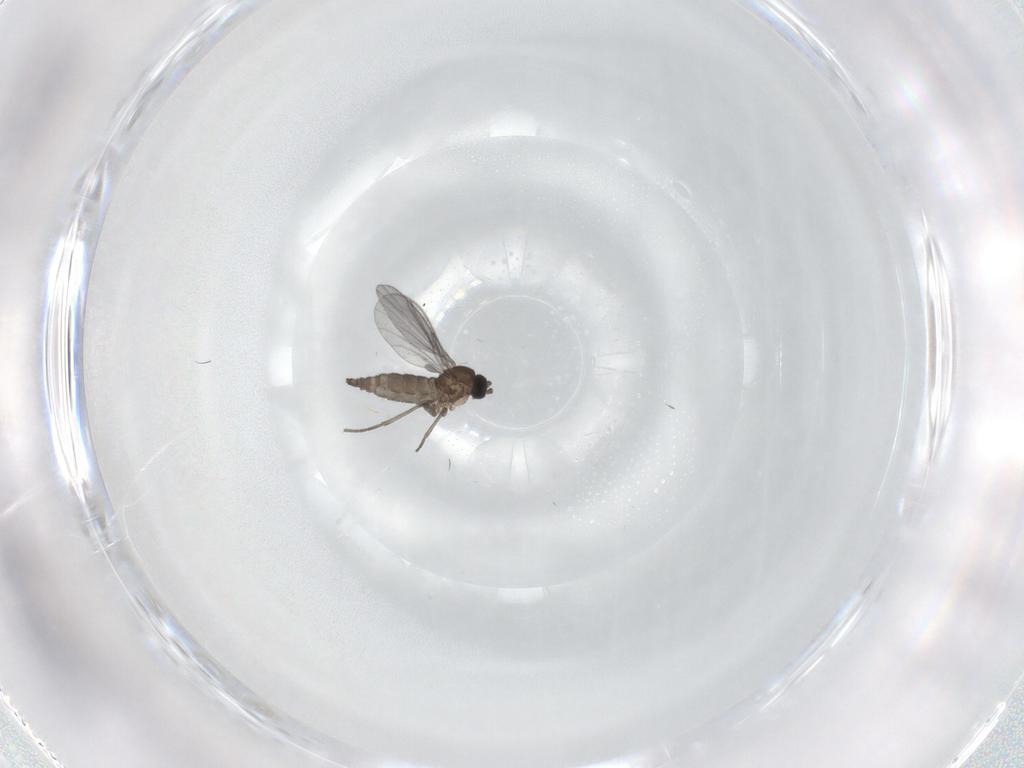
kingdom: Animalia
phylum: Arthropoda
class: Insecta
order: Diptera
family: Sciaridae
